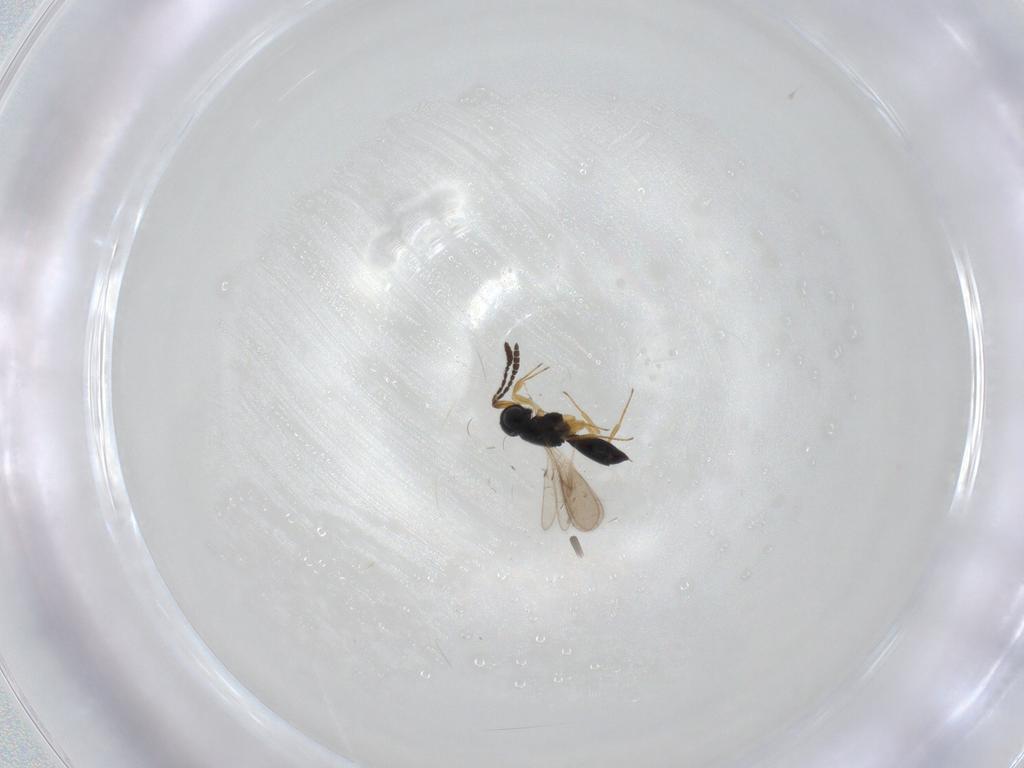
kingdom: Animalia
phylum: Arthropoda
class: Insecta
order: Hymenoptera
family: Scelionidae
